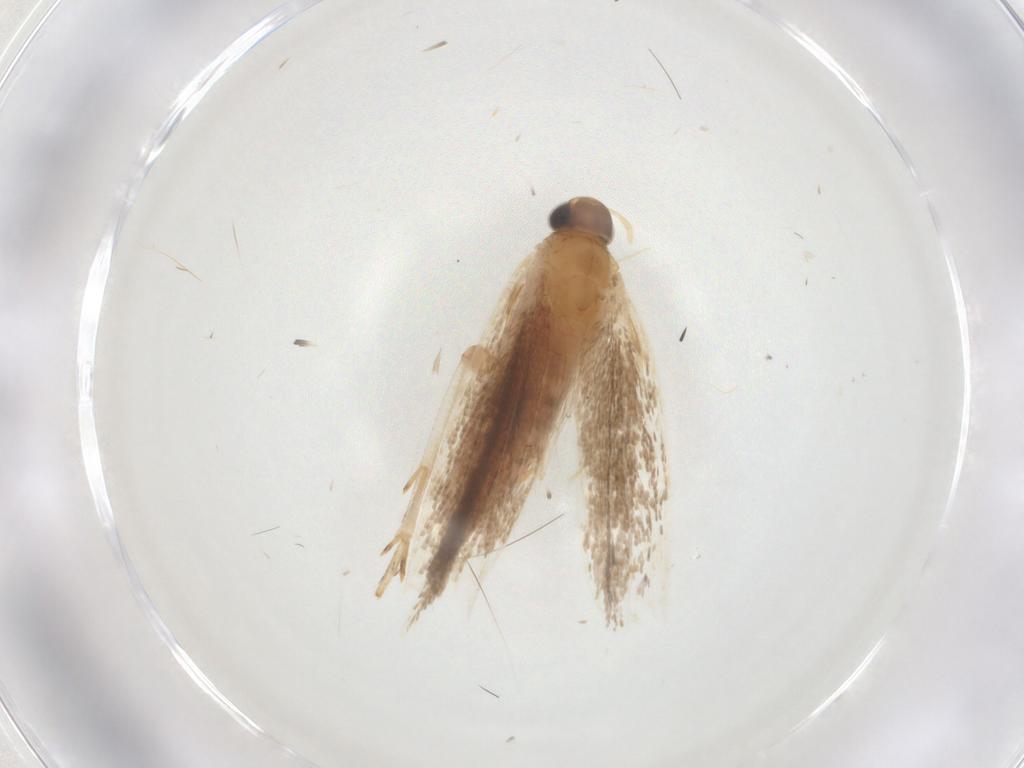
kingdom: Animalia
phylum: Arthropoda
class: Insecta
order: Lepidoptera
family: Gelechiidae
